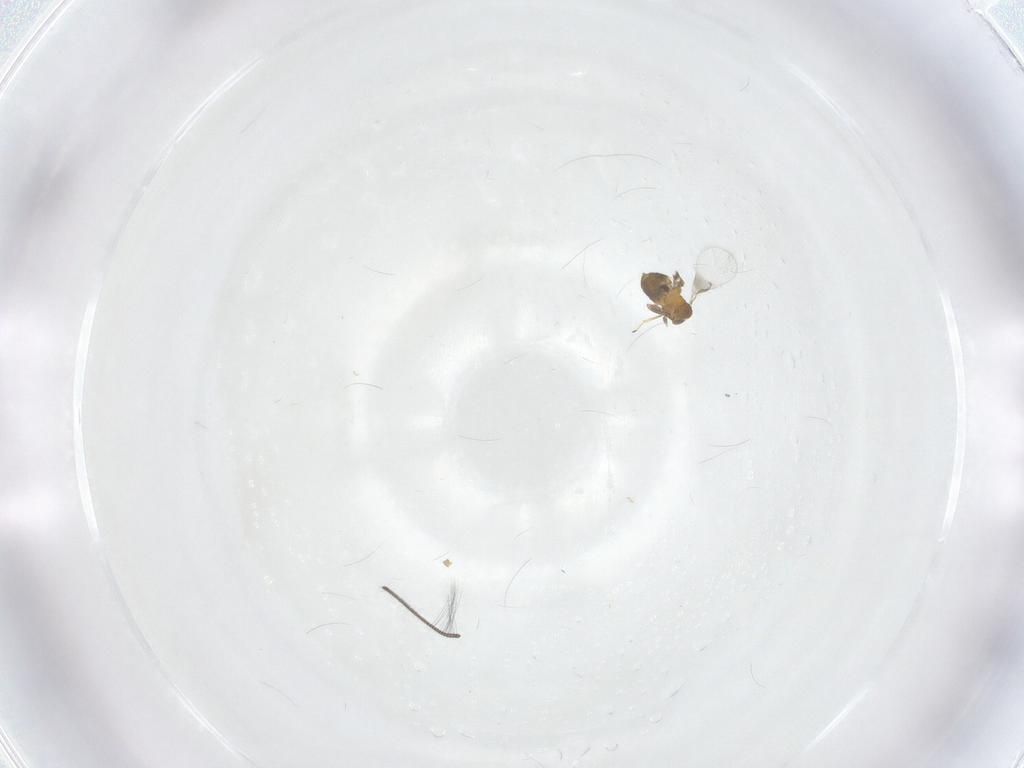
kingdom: Animalia
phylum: Arthropoda
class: Insecta
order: Hymenoptera
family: Trichogrammatidae
